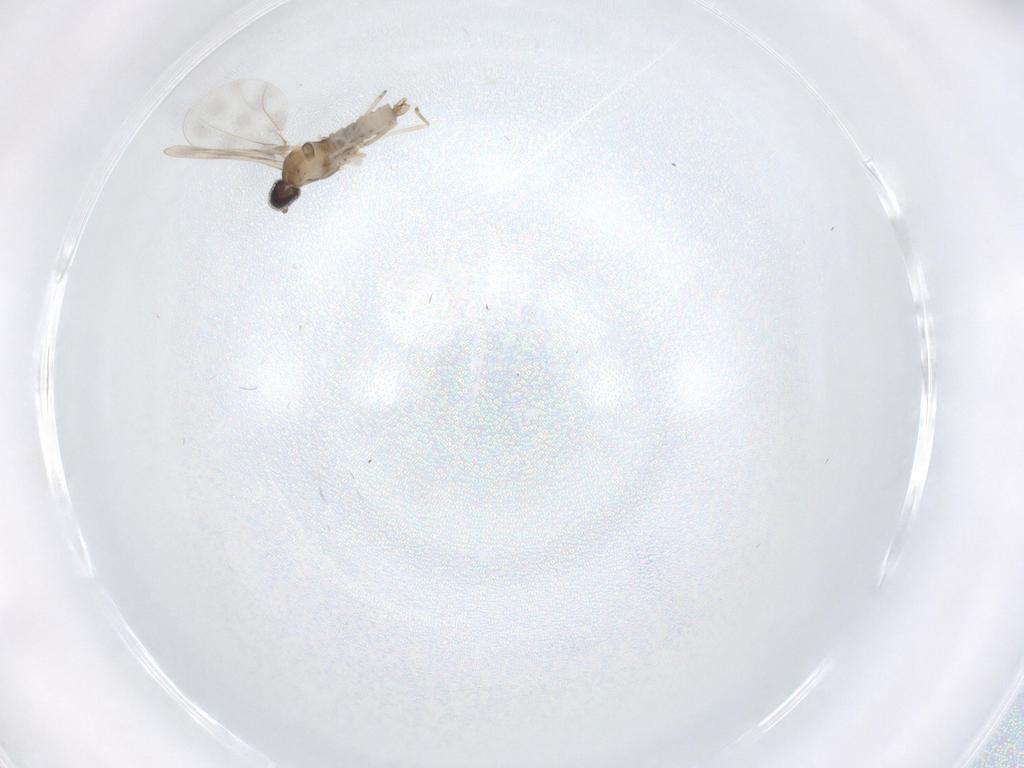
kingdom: Animalia
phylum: Arthropoda
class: Insecta
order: Diptera
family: Cecidomyiidae
